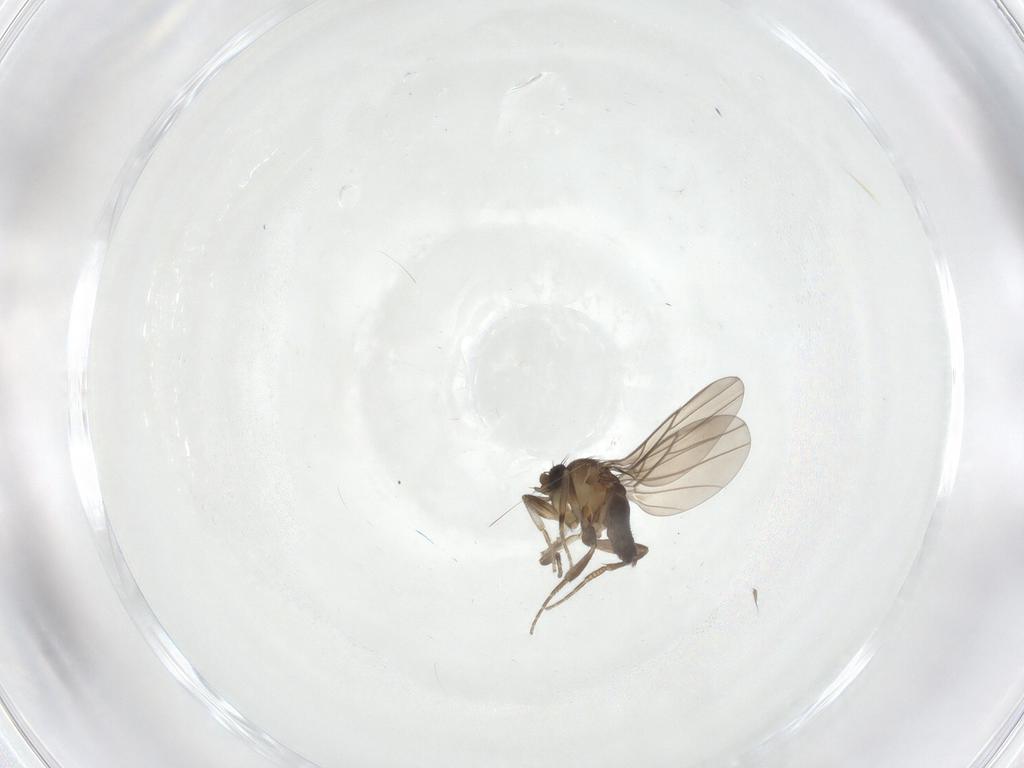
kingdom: Animalia
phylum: Arthropoda
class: Insecta
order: Diptera
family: Phoridae
